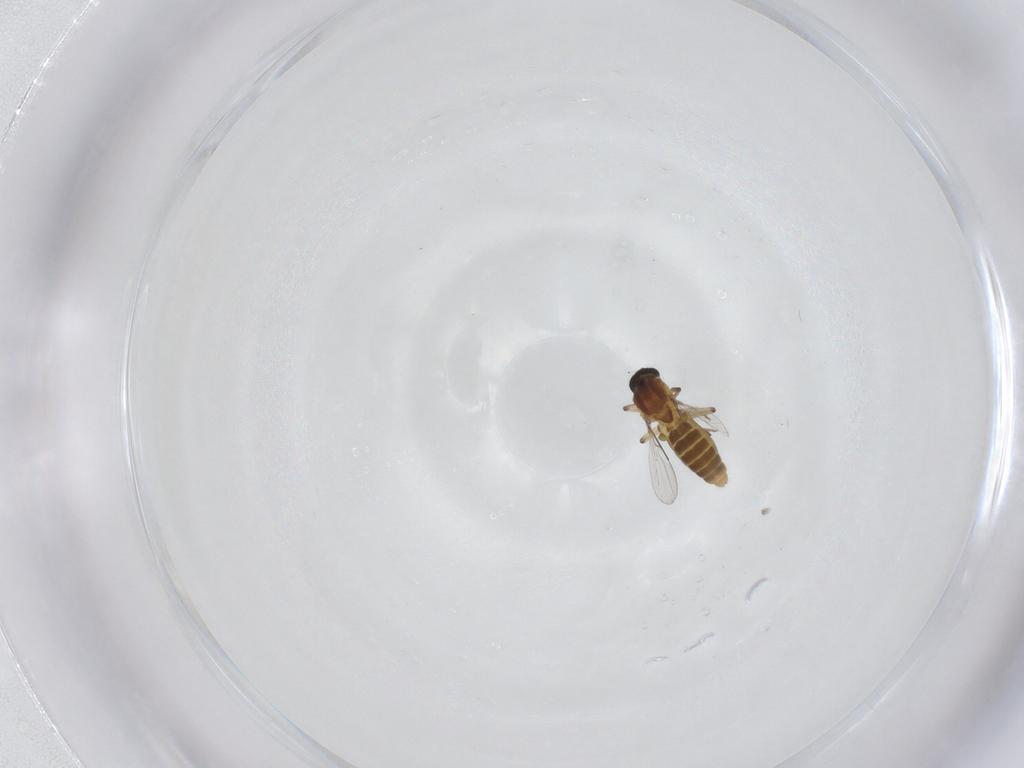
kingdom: Animalia
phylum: Arthropoda
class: Insecta
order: Diptera
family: Ceratopogonidae
